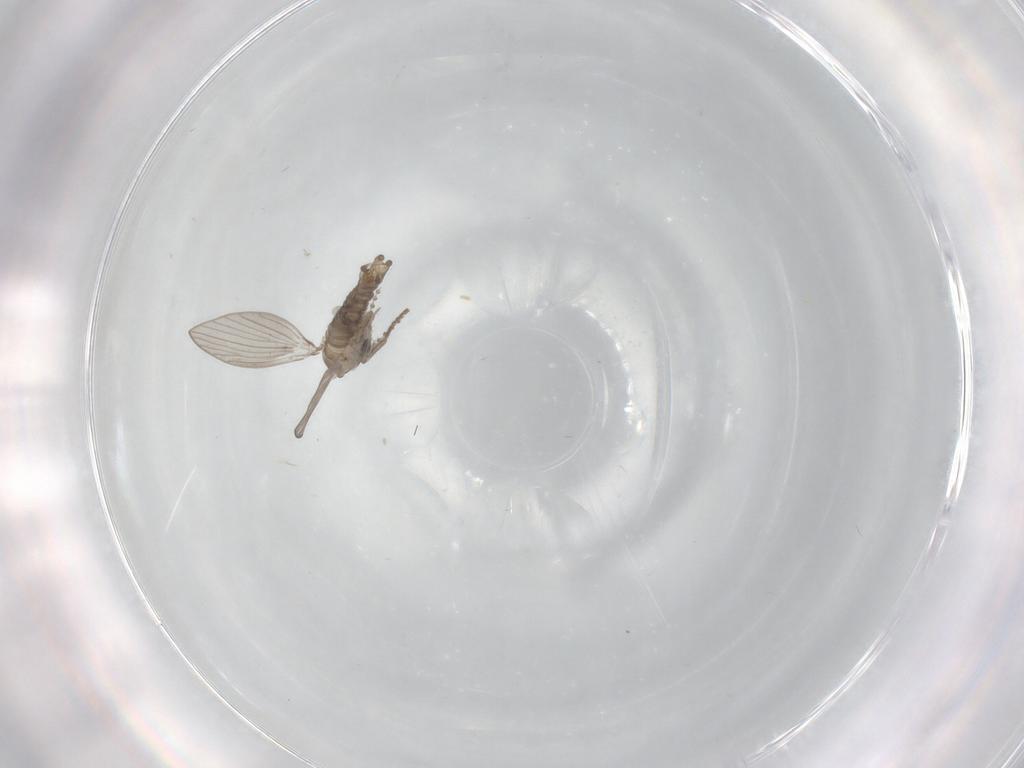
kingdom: Animalia
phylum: Arthropoda
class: Insecta
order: Diptera
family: Psychodidae
